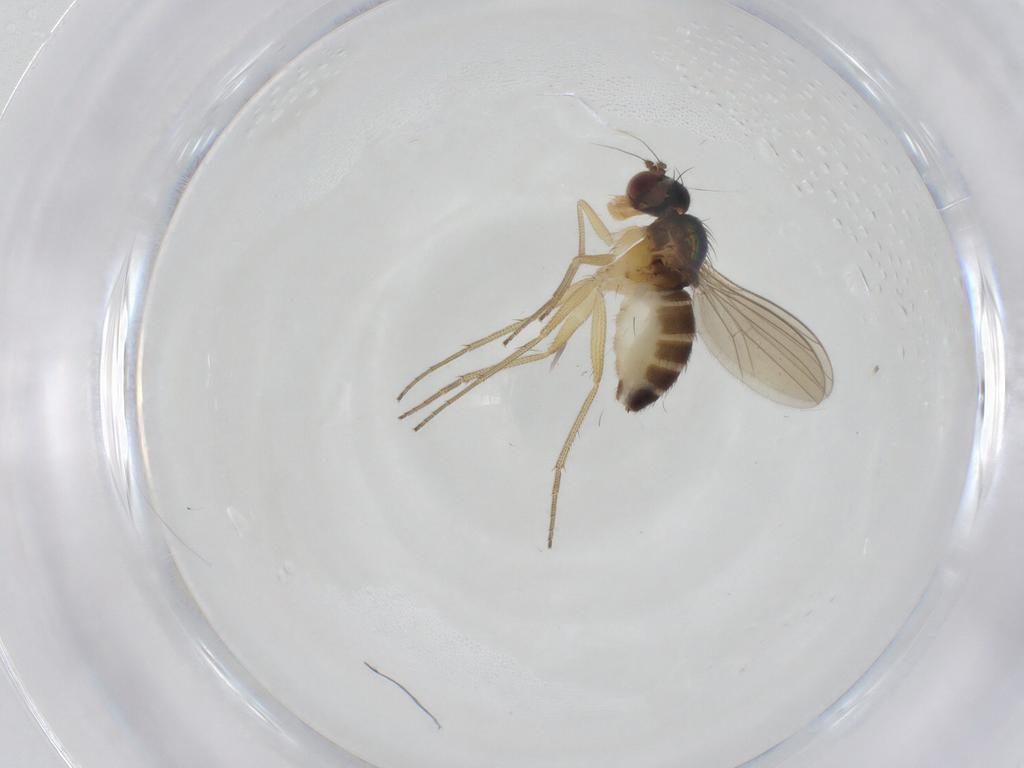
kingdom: Animalia
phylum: Arthropoda
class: Insecta
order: Diptera
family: Dolichopodidae
